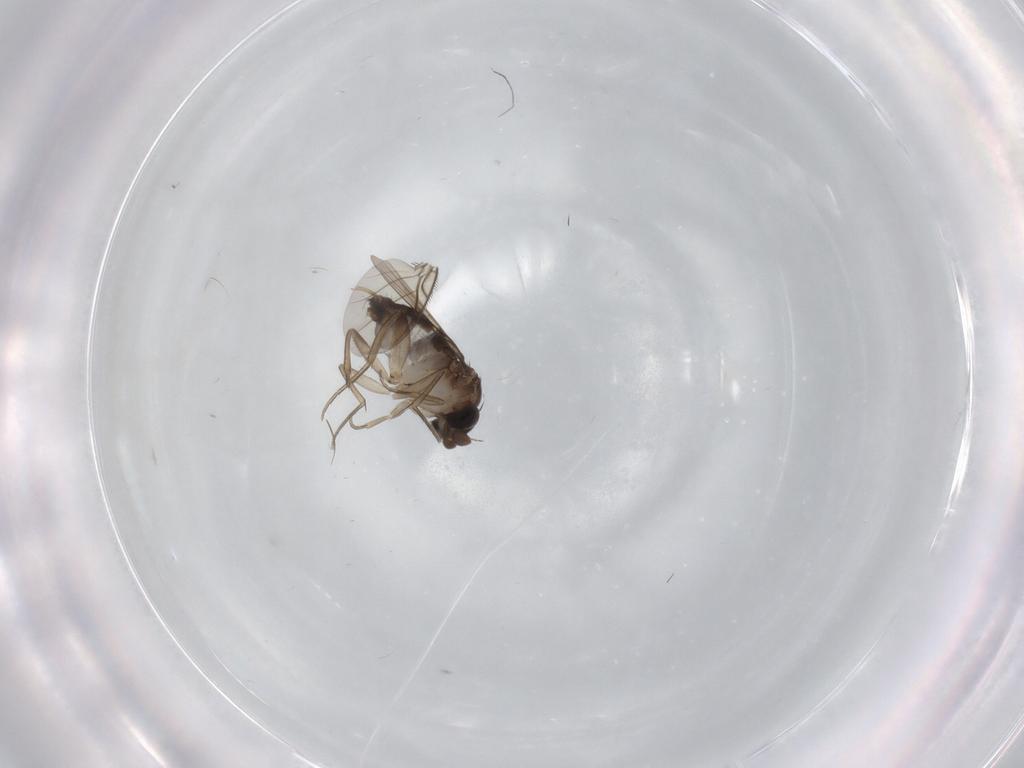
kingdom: Animalia
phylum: Arthropoda
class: Insecta
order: Diptera
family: Phoridae
